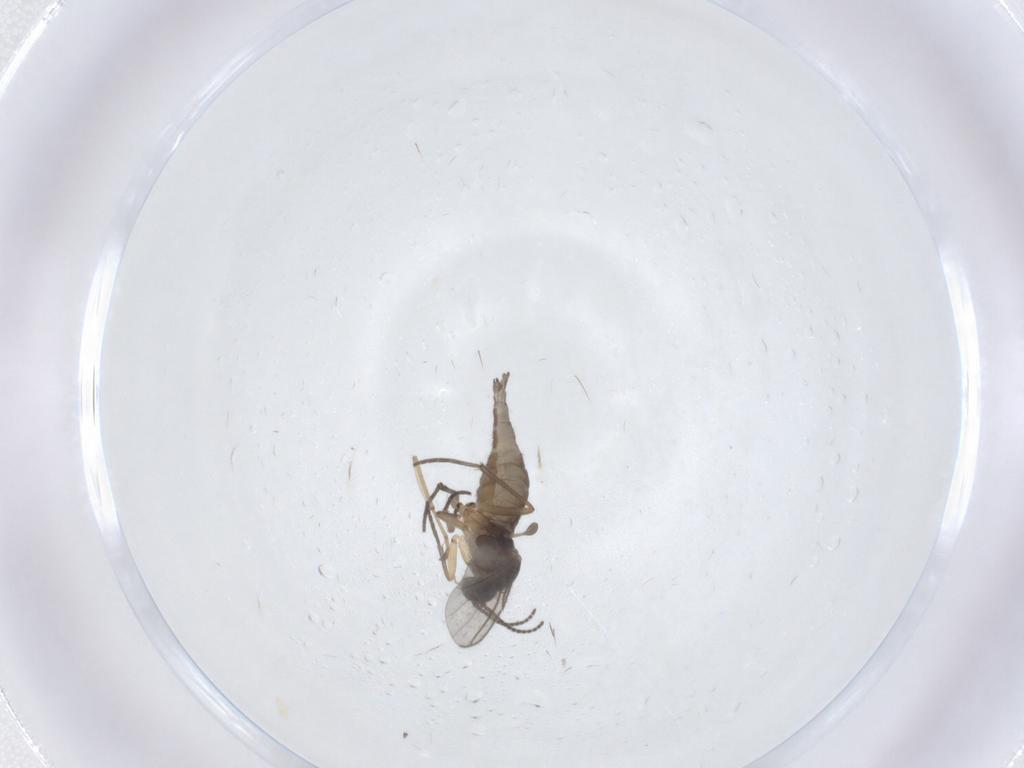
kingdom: Animalia
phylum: Arthropoda
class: Insecta
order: Diptera
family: Sciaridae
